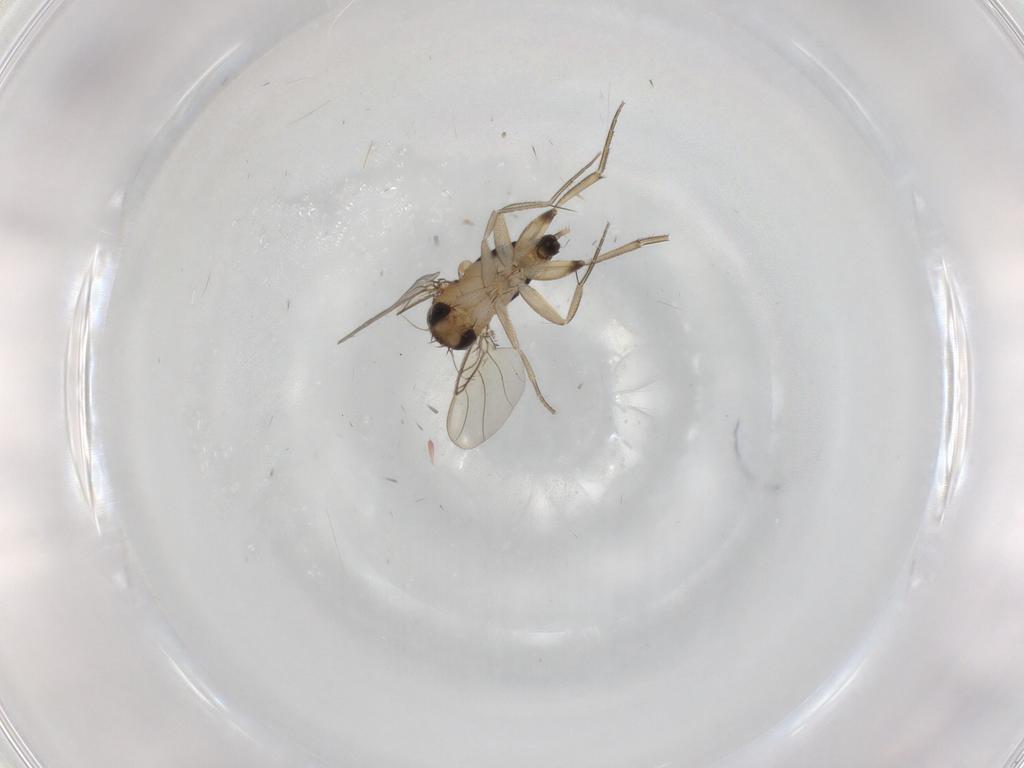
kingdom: Animalia
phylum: Arthropoda
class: Insecta
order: Diptera
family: Phoridae
